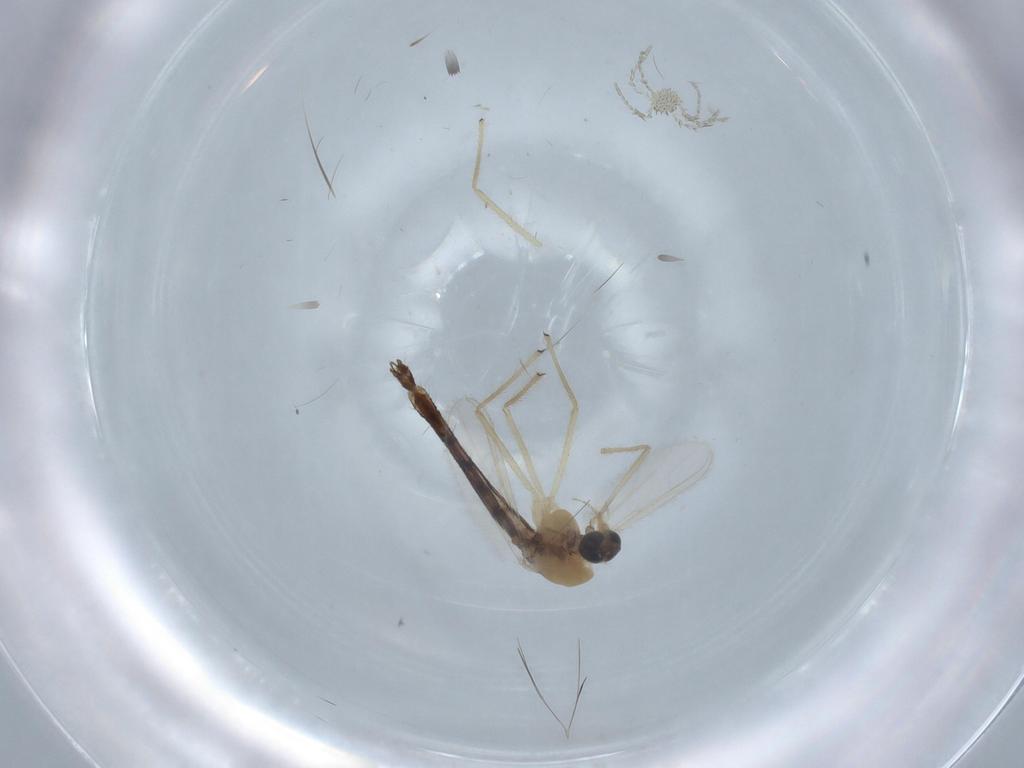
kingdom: Animalia
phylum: Arthropoda
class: Insecta
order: Diptera
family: Chironomidae
